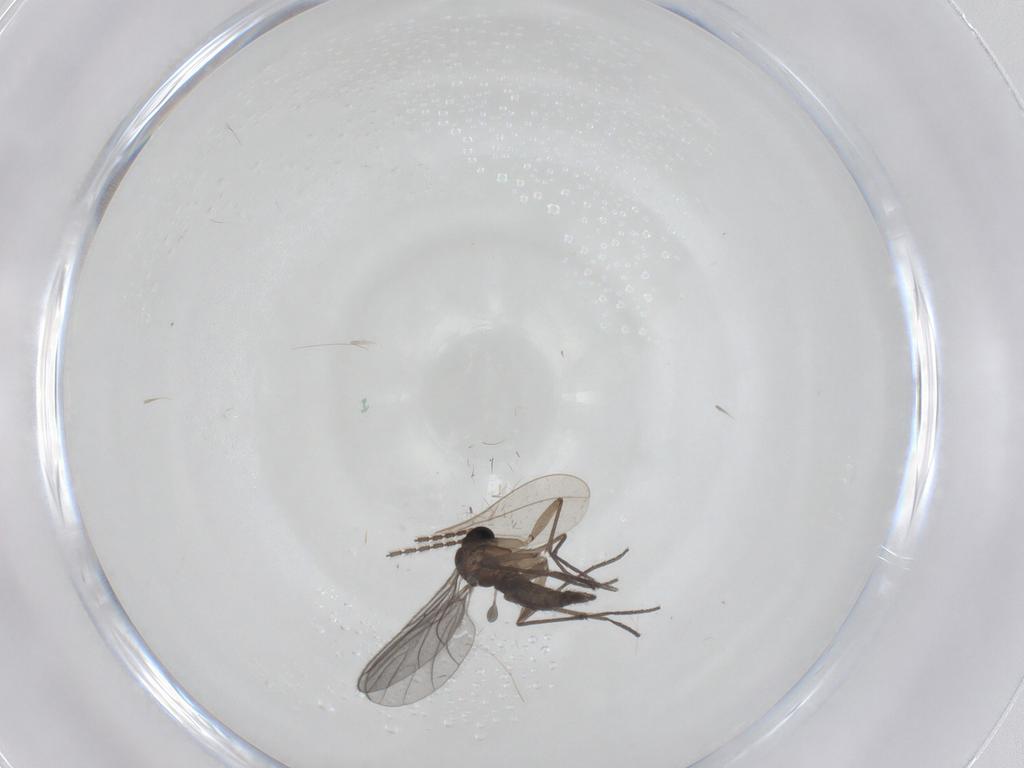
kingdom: Animalia
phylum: Arthropoda
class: Insecta
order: Diptera
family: Sciaridae
